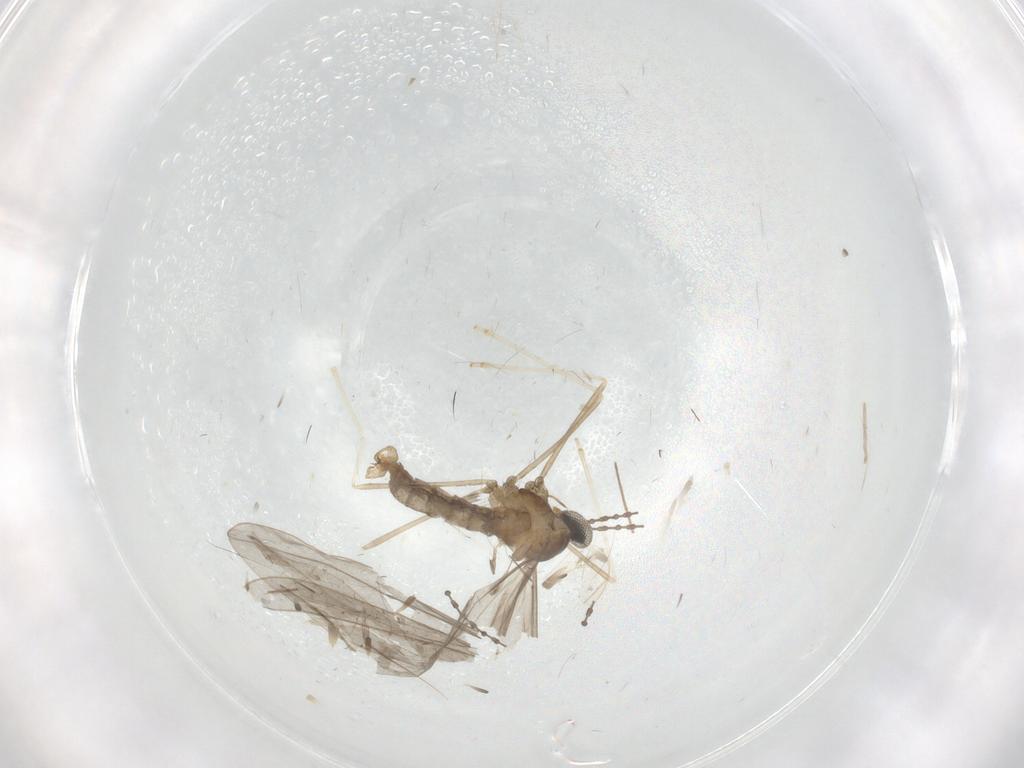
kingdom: Animalia
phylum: Arthropoda
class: Insecta
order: Diptera
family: Cecidomyiidae
